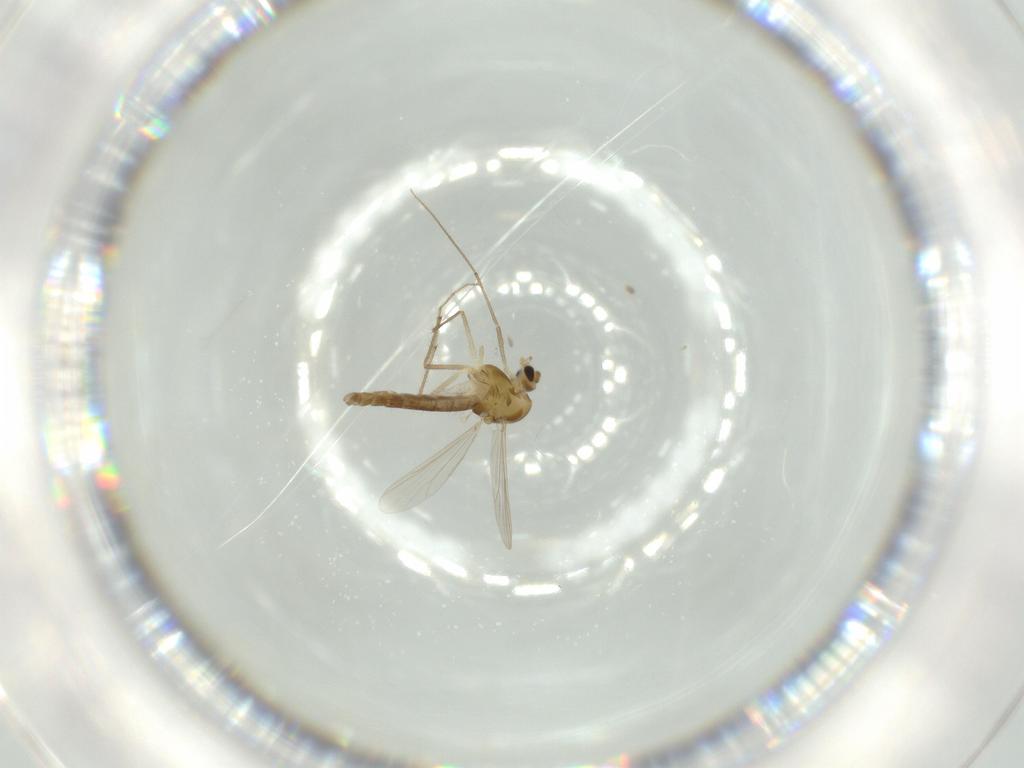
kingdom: Animalia
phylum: Arthropoda
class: Insecta
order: Diptera
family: Chironomidae
